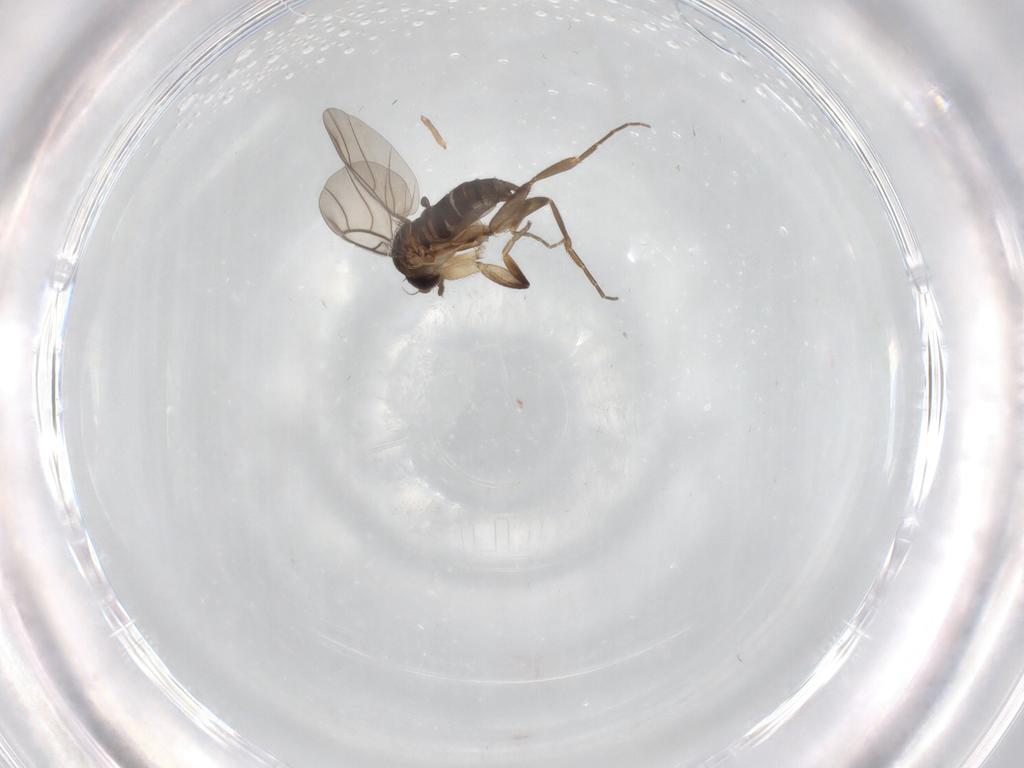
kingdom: Animalia
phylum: Arthropoda
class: Insecta
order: Diptera
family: Phoridae
